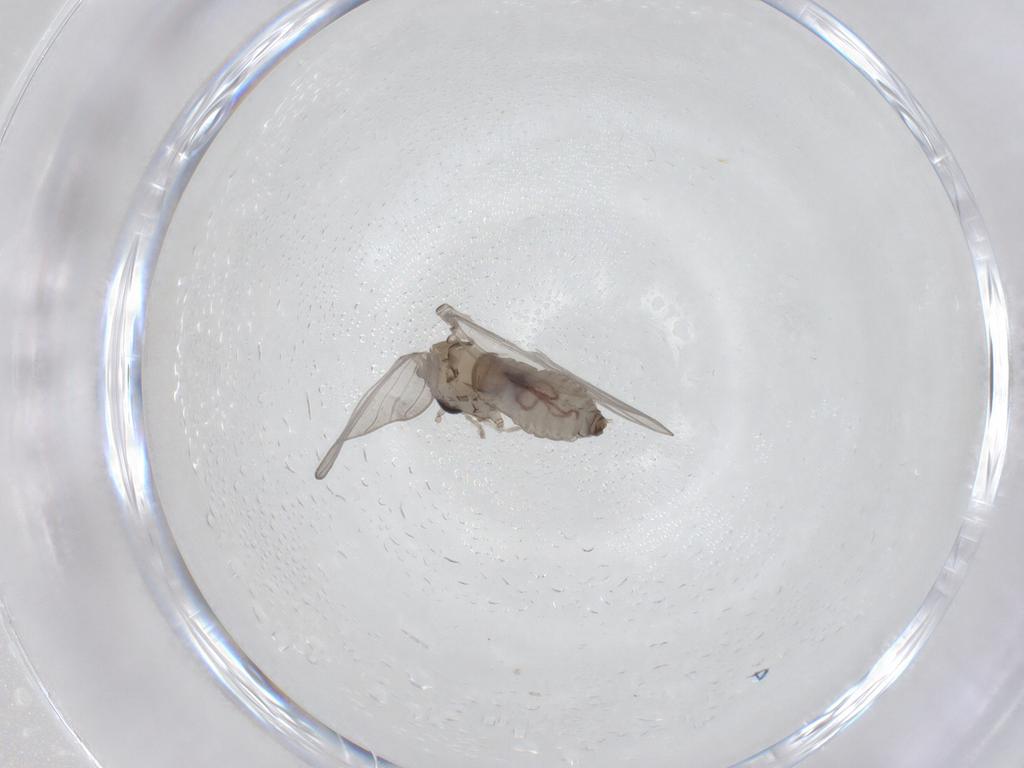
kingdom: Animalia
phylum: Arthropoda
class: Insecta
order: Diptera
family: Psychodidae
